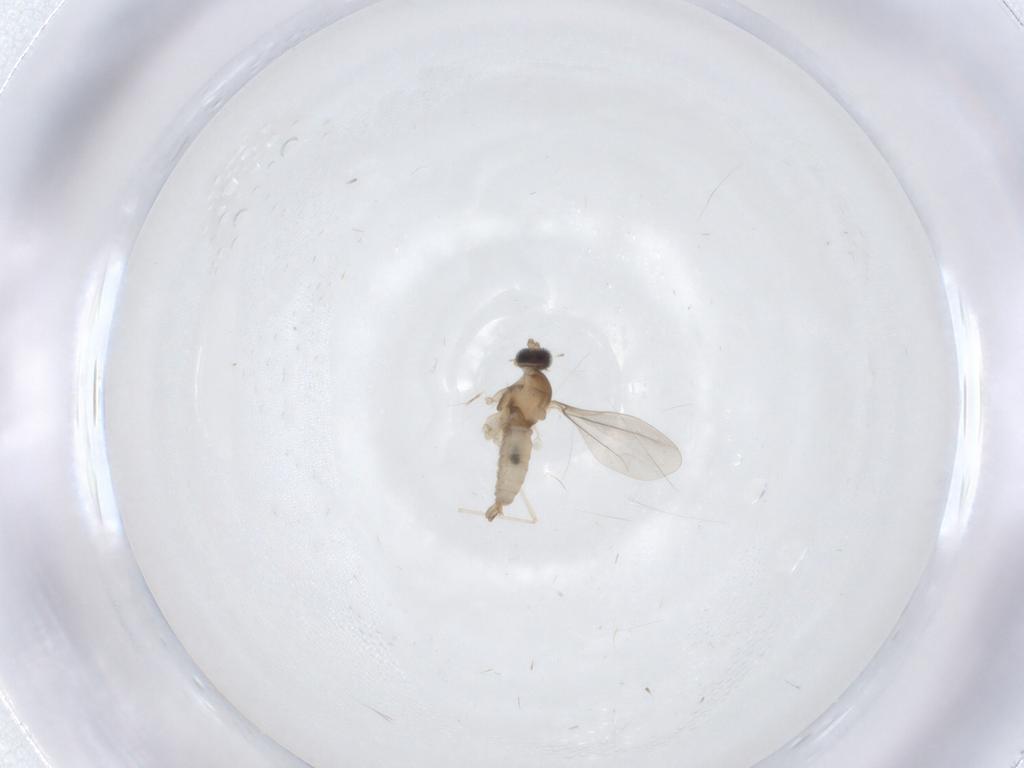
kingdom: Animalia
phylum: Arthropoda
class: Insecta
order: Diptera
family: Cecidomyiidae
